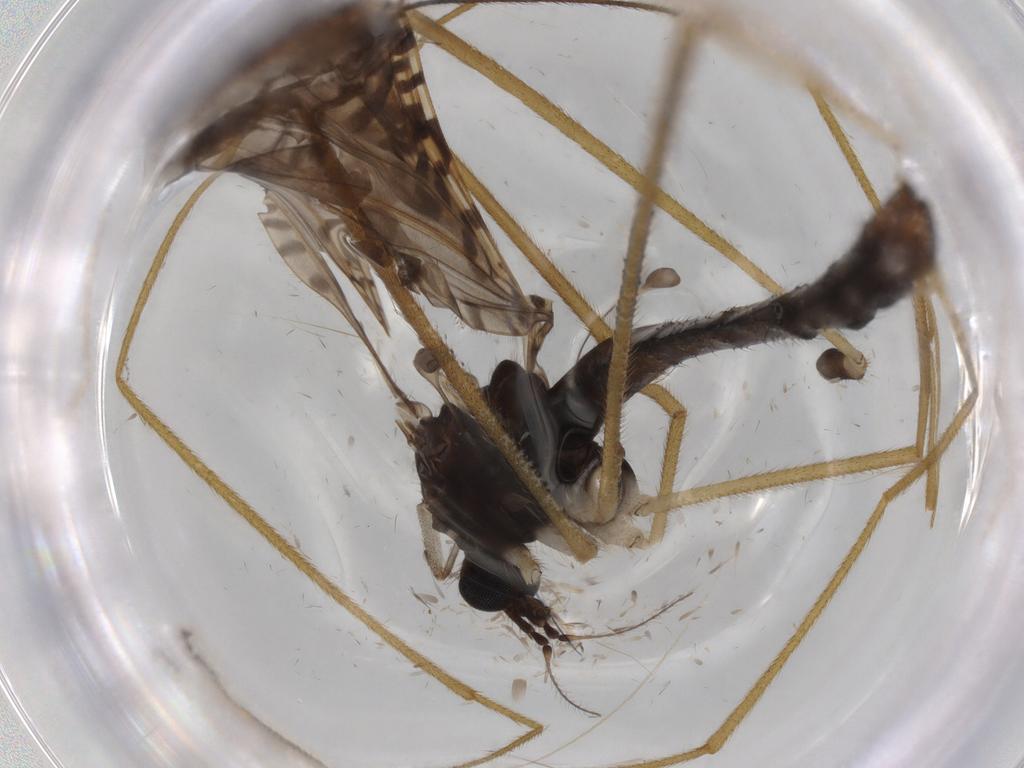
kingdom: Animalia
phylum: Arthropoda
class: Insecta
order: Diptera
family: Limoniidae
